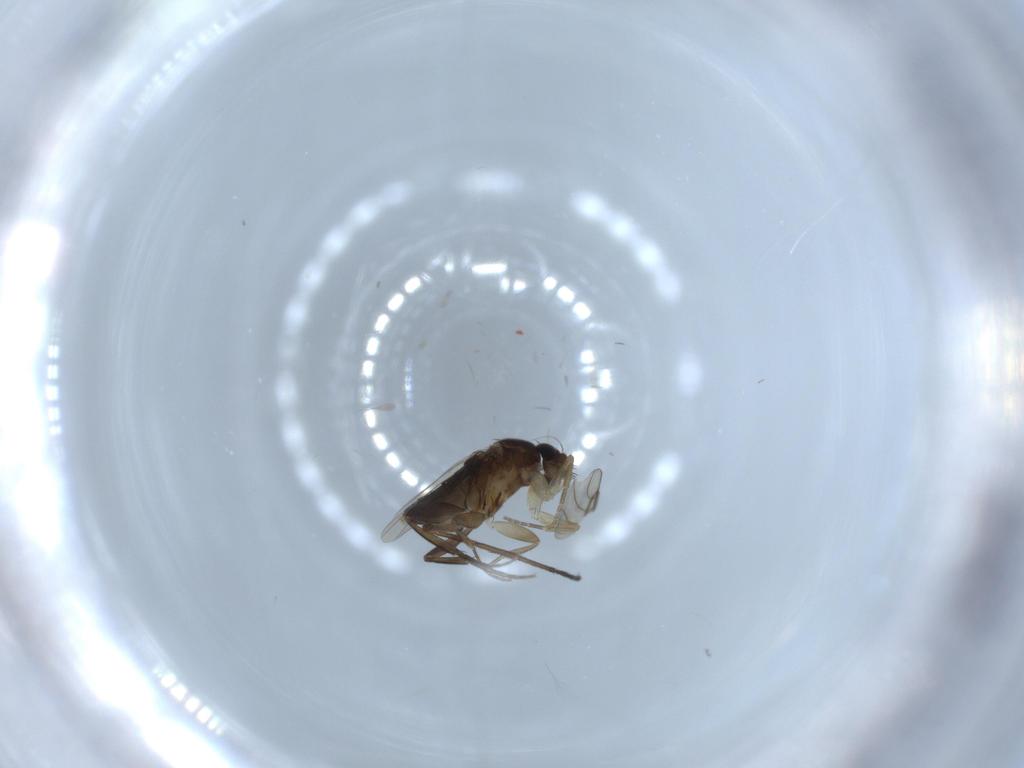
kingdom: Animalia
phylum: Arthropoda
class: Insecta
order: Diptera
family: Phoridae
